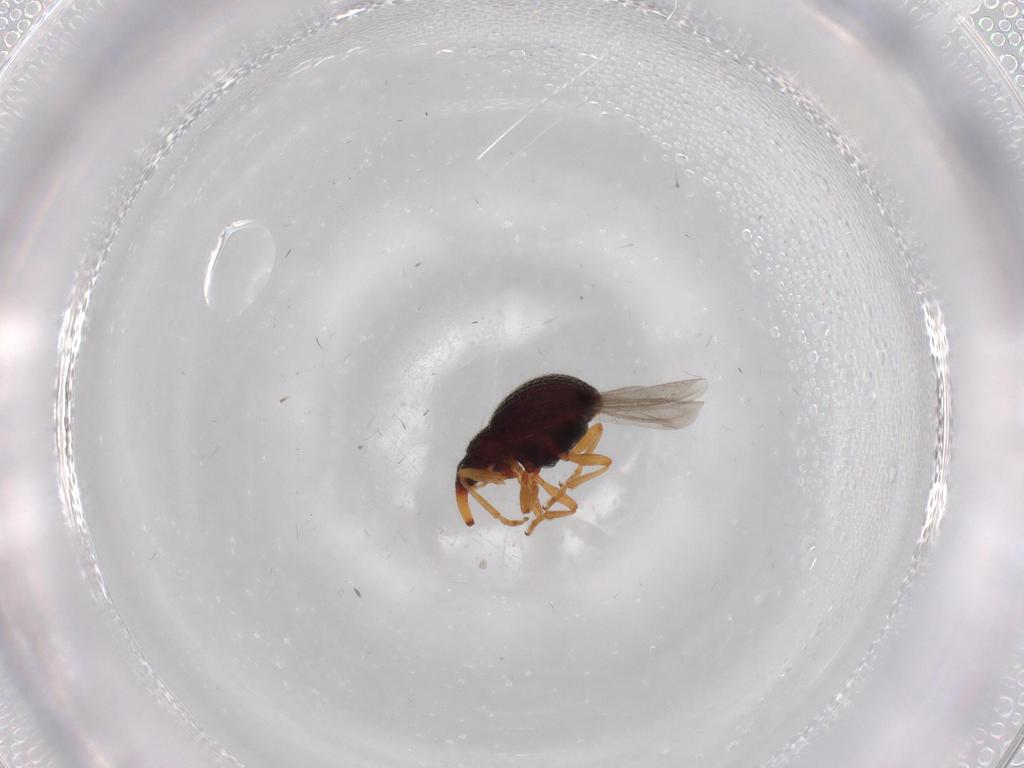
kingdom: Animalia
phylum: Arthropoda
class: Insecta
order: Coleoptera
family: Brentidae
